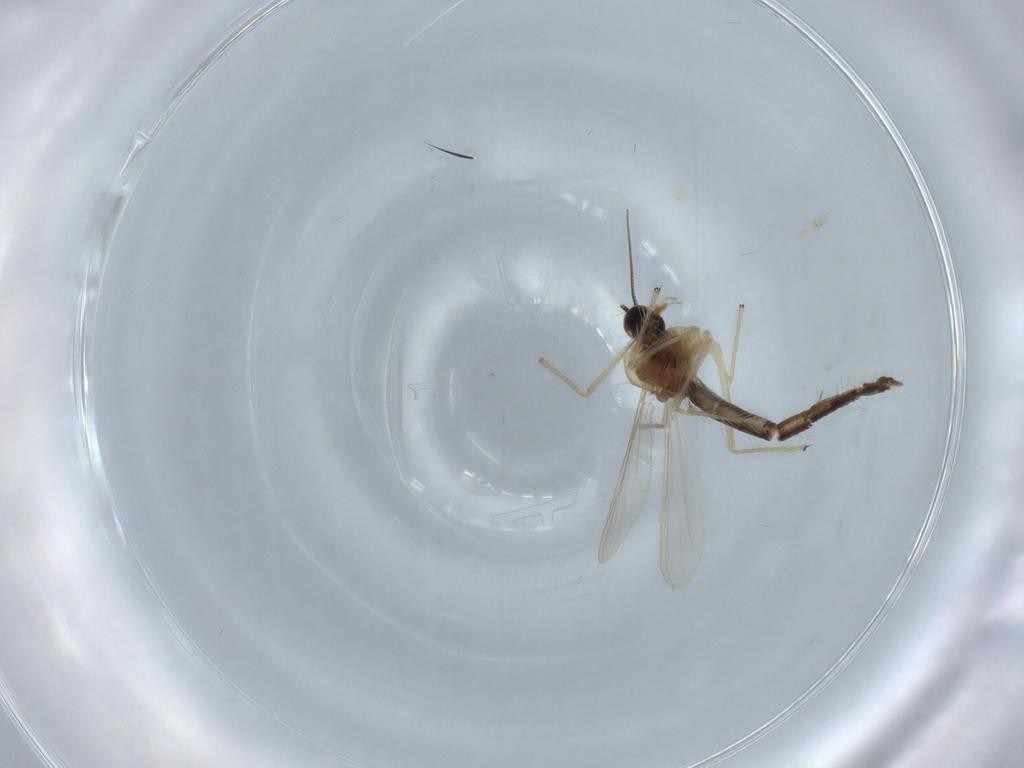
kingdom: Animalia
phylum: Arthropoda
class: Insecta
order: Diptera
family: Chironomidae
